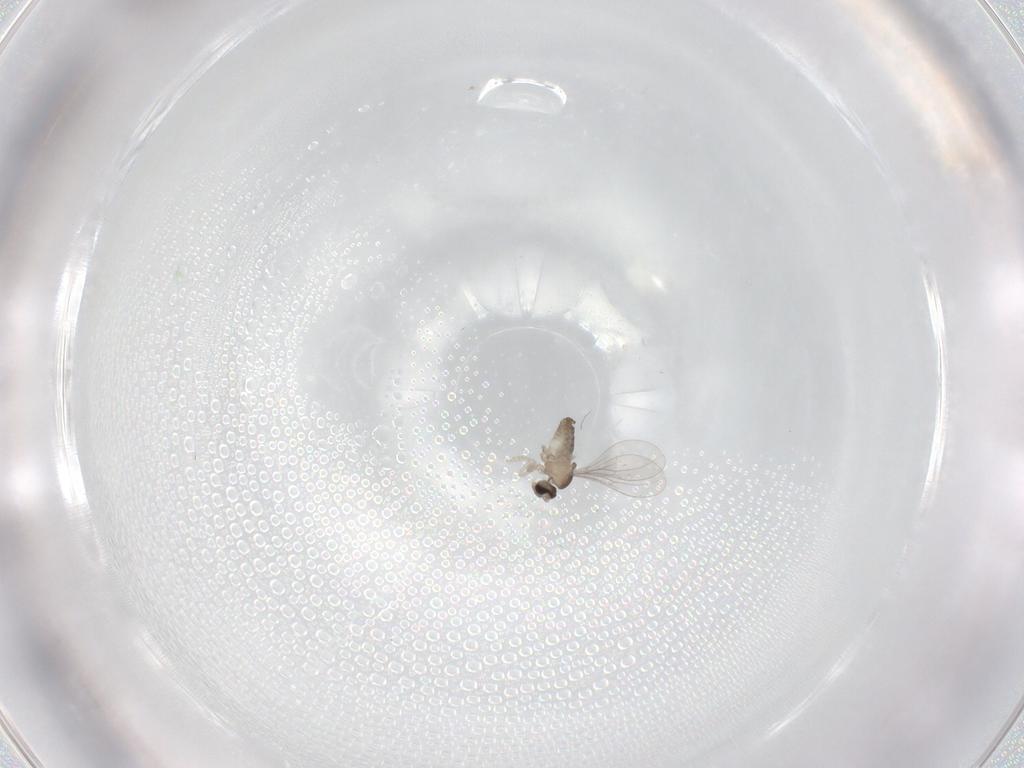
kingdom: Animalia
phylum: Arthropoda
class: Insecta
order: Diptera
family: Cecidomyiidae
